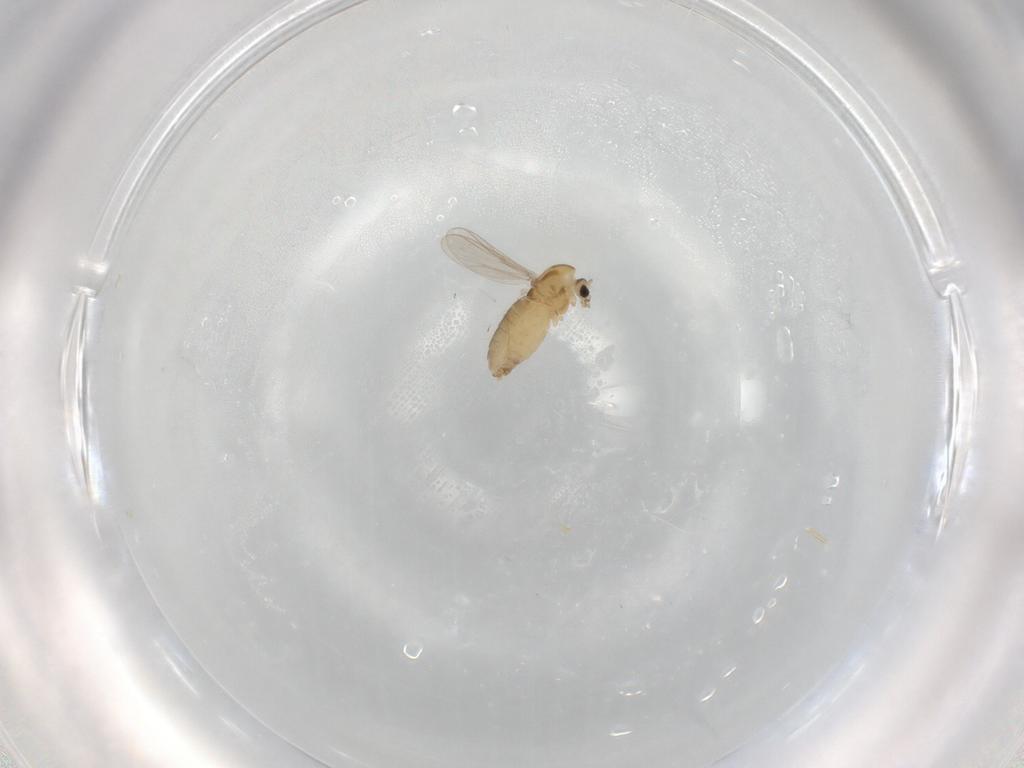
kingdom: Animalia
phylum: Arthropoda
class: Insecta
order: Diptera
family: Chironomidae
